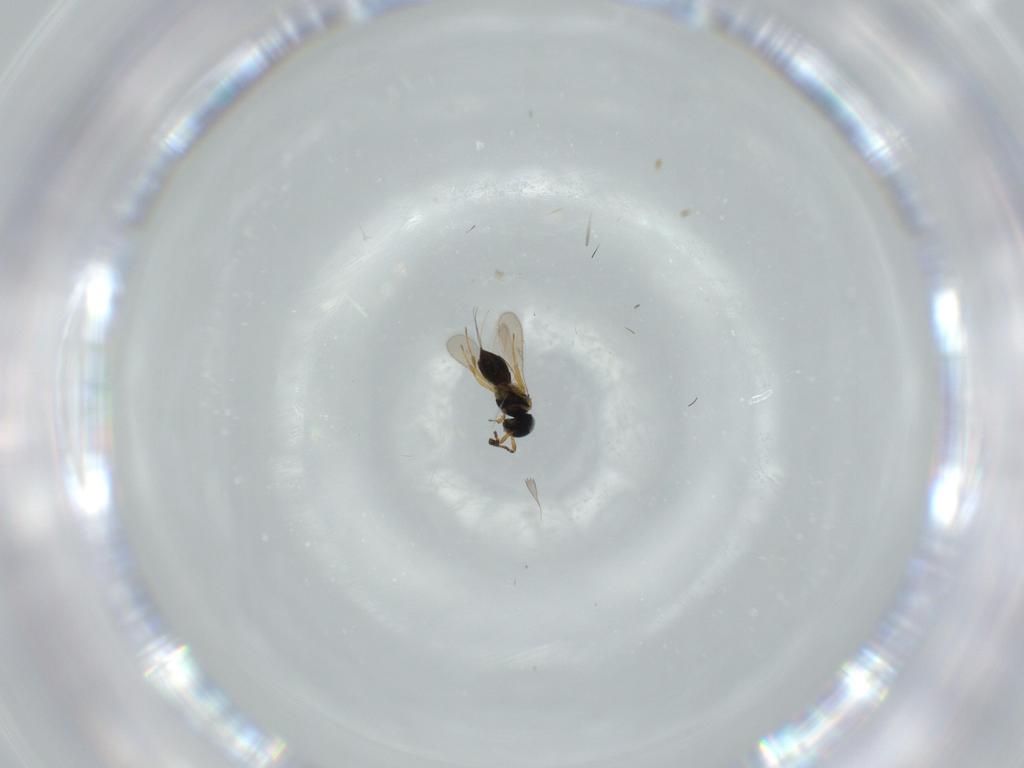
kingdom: Animalia
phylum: Arthropoda
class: Insecta
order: Hymenoptera
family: Scelionidae
